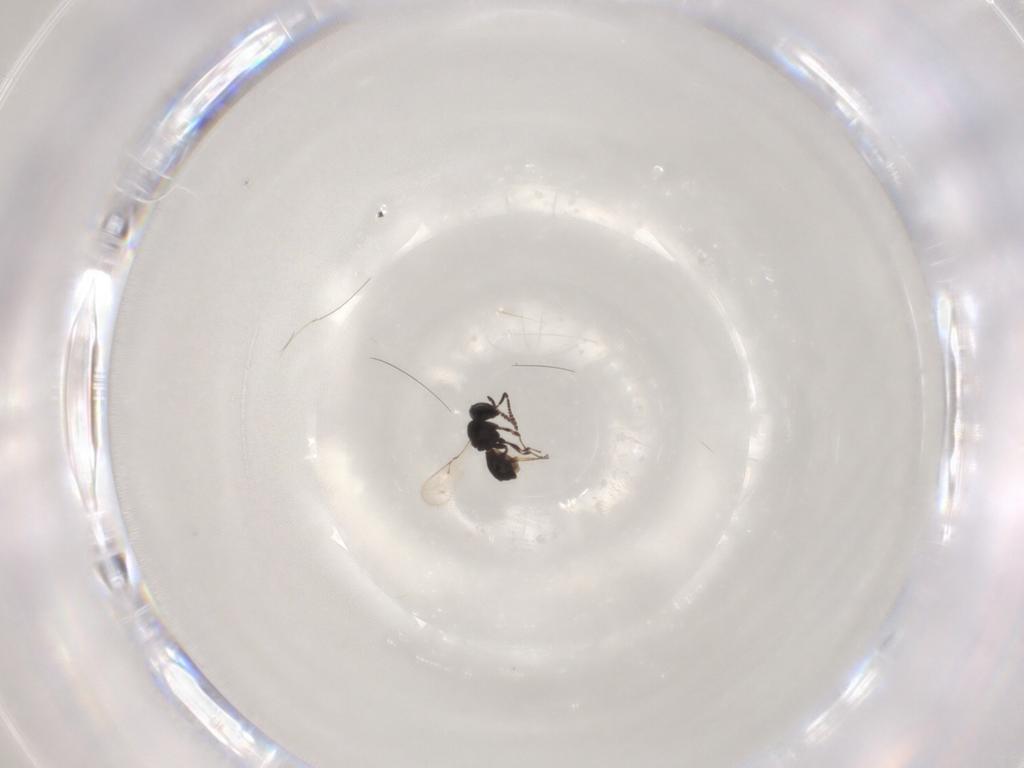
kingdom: Animalia
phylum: Arthropoda
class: Insecta
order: Hymenoptera
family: Scelionidae
